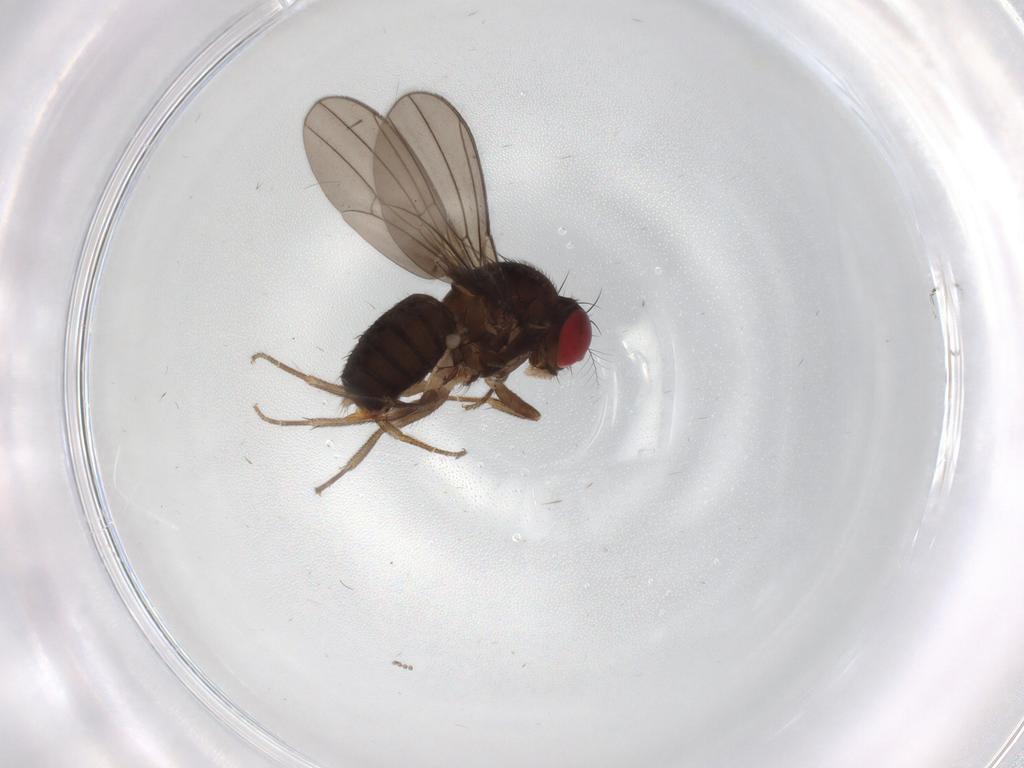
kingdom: Animalia
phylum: Arthropoda
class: Insecta
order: Diptera
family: Drosophilidae
